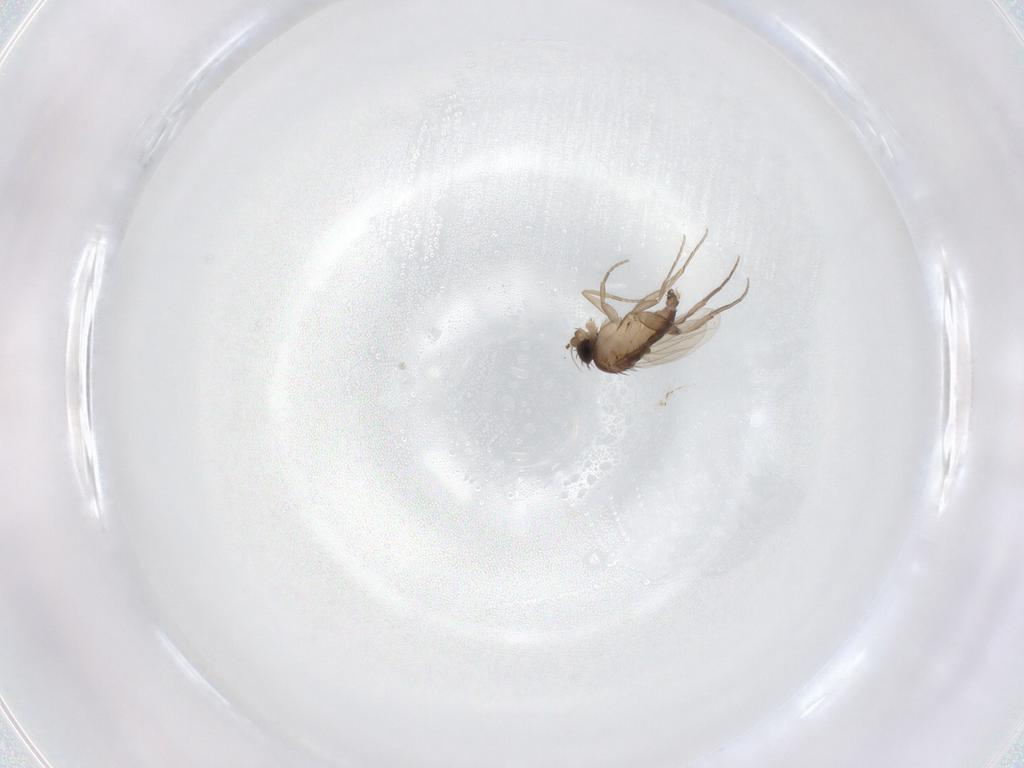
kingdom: Animalia
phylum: Arthropoda
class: Insecta
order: Diptera
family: Phoridae
